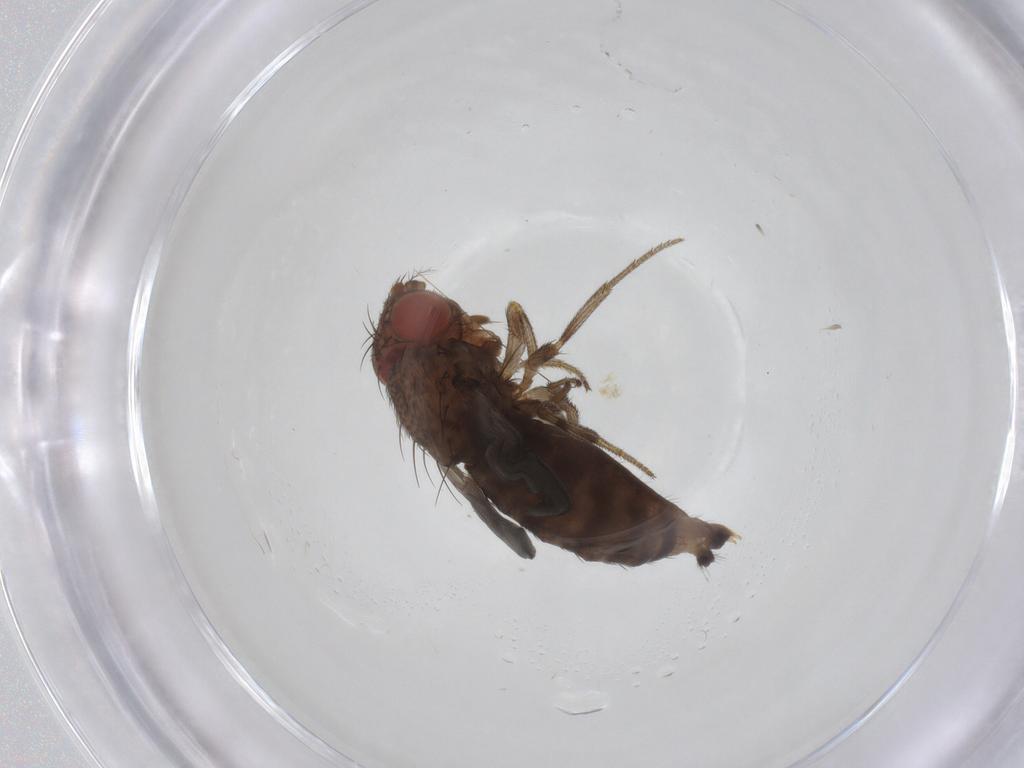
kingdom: Animalia
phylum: Arthropoda
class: Insecta
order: Diptera
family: Drosophilidae
